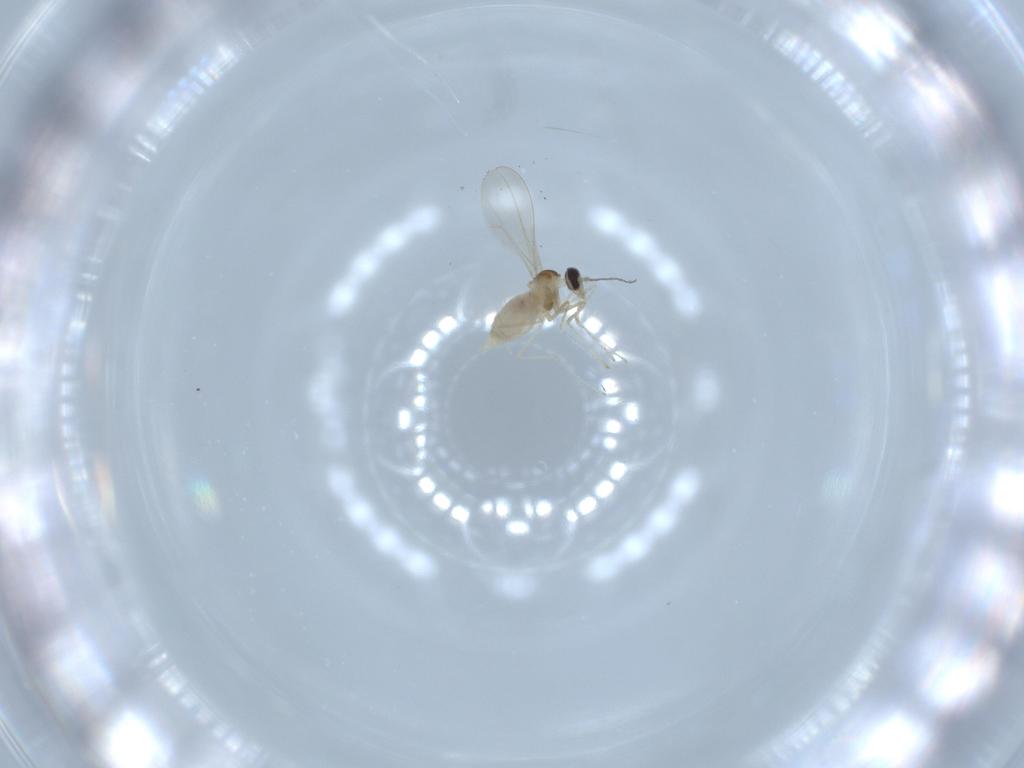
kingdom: Animalia
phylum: Arthropoda
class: Insecta
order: Diptera
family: Cecidomyiidae
